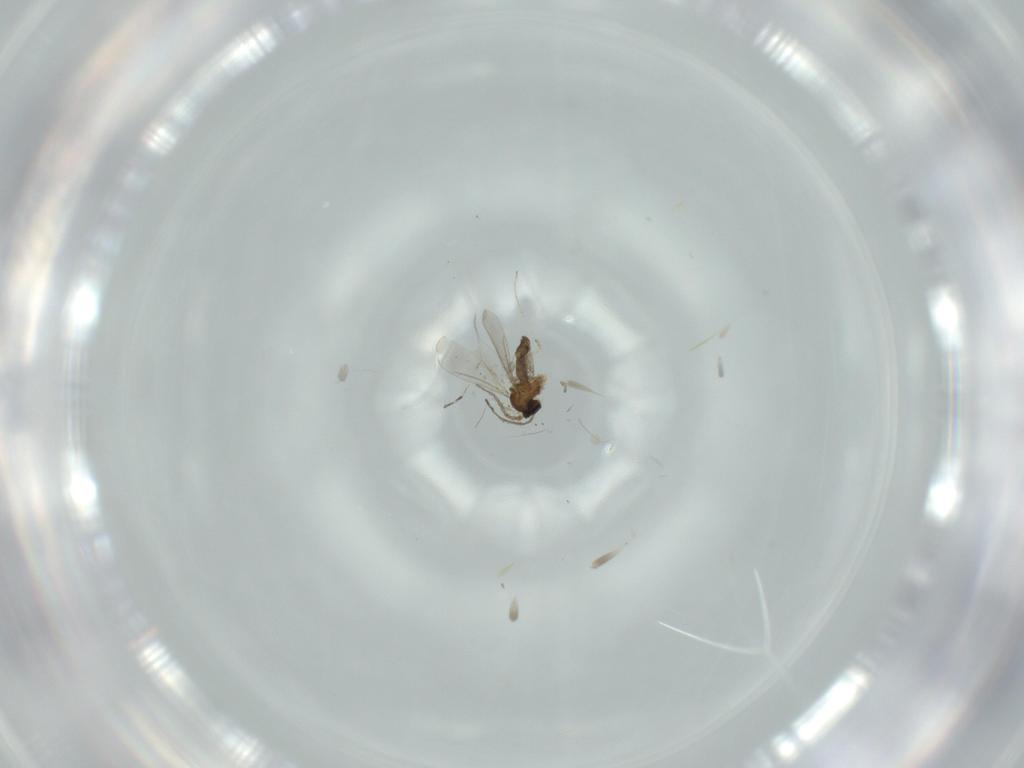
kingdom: Animalia
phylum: Arthropoda
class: Insecta
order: Diptera
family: Cecidomyiidae
